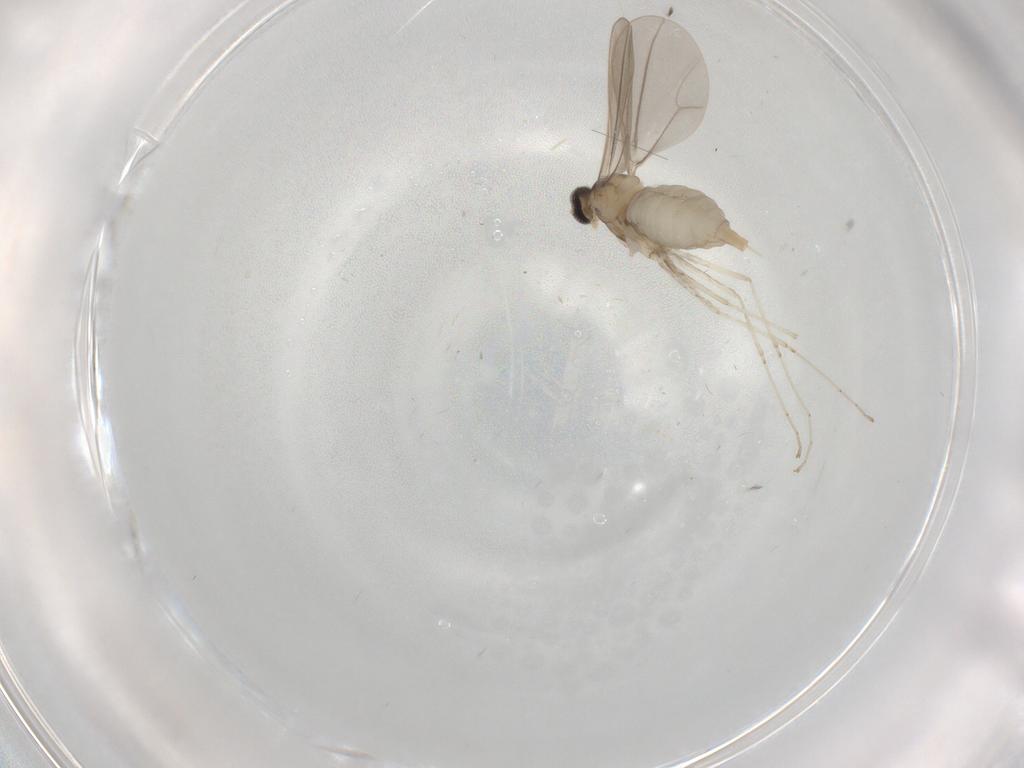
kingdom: Animalia
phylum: Arthropoda
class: Insecta
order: Diptera
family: Cecidomyiidae
